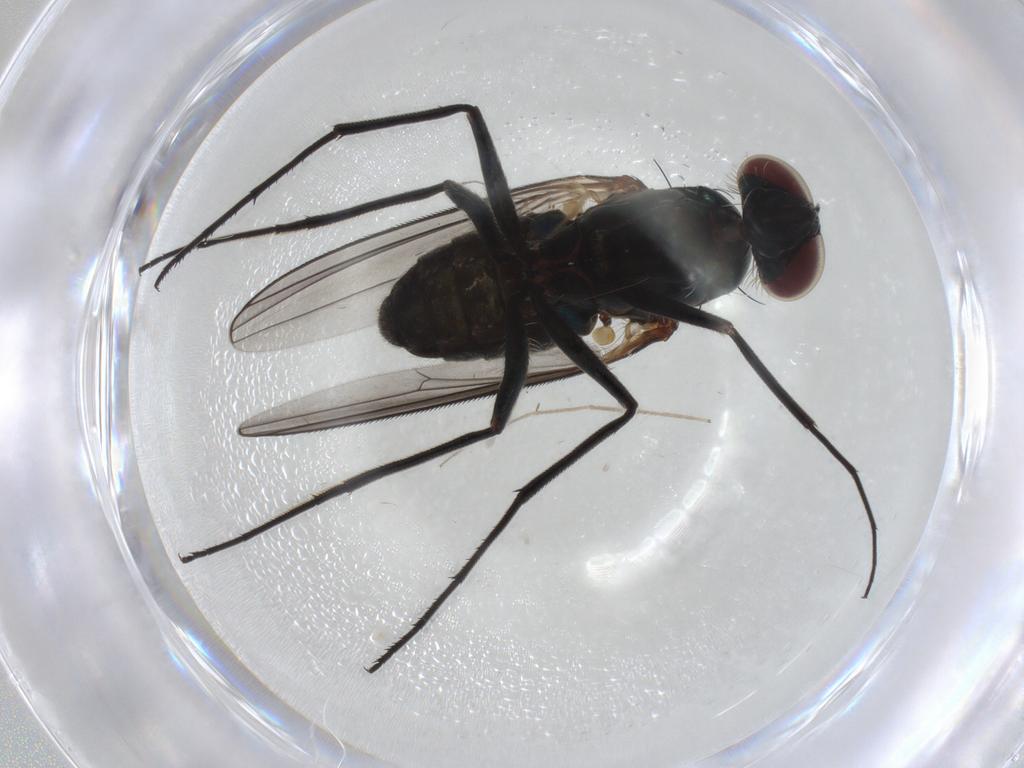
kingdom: Animalia
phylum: Arthropoda
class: Insecta
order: Diptera
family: Dolichopodidae
